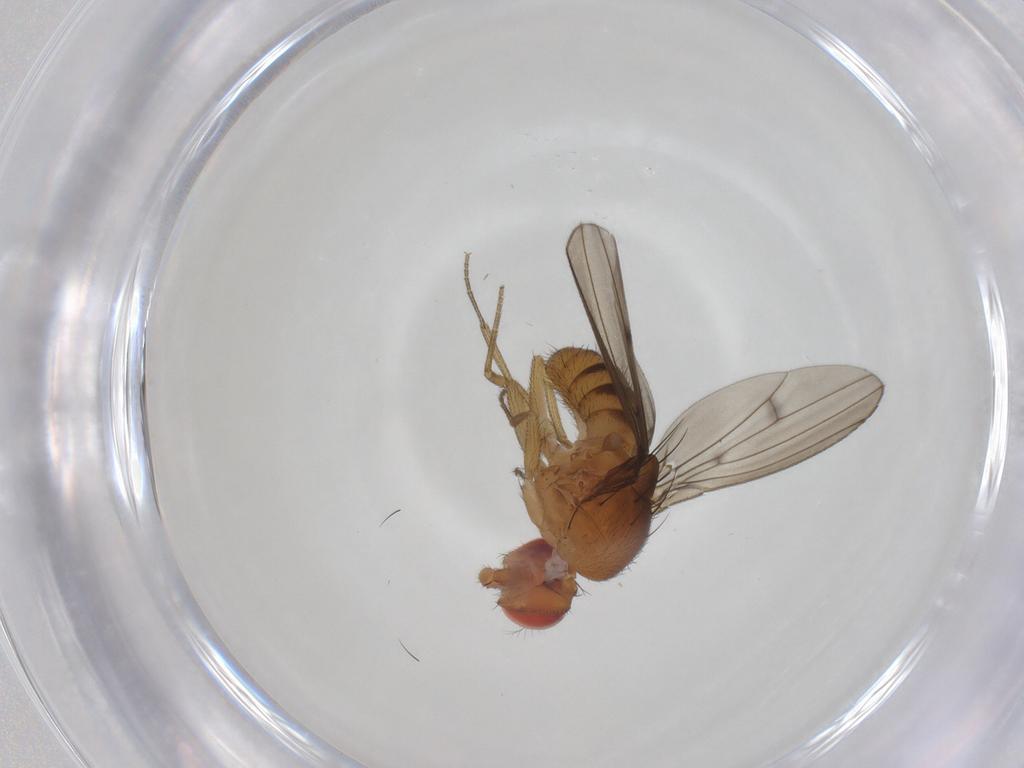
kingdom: Animalia
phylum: Arthropoda
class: Insecta
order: Diptera
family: Drosophilidae
